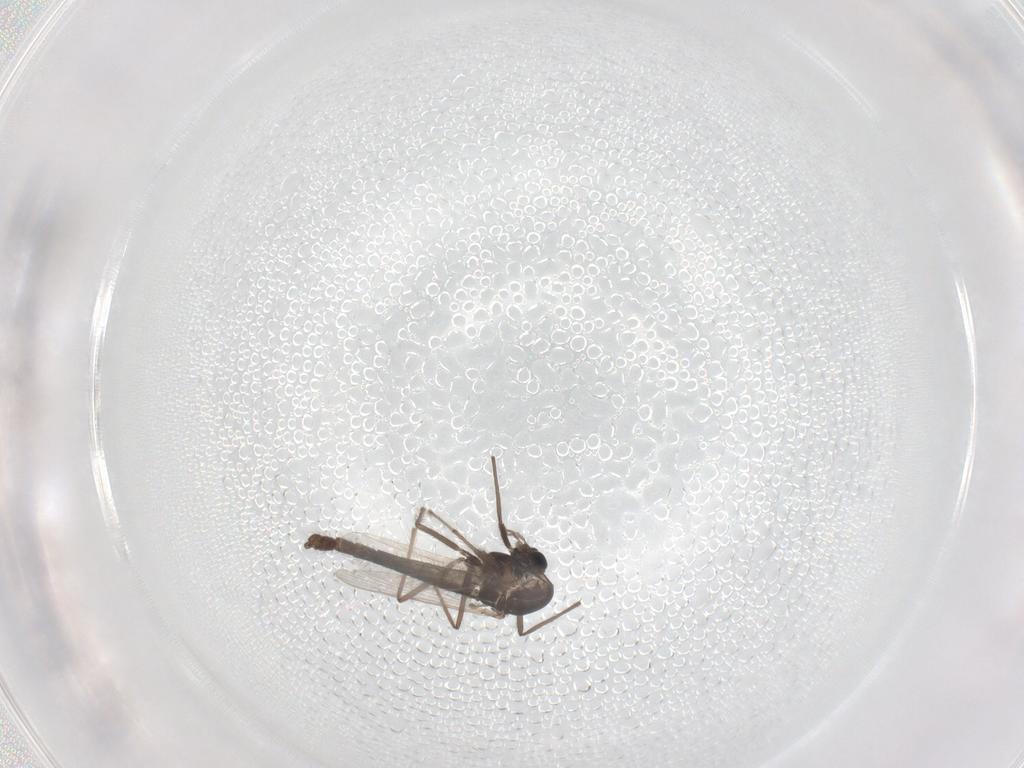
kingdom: Animalia
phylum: Arthropoda
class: Insecta
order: Diptera
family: Chironomidae
